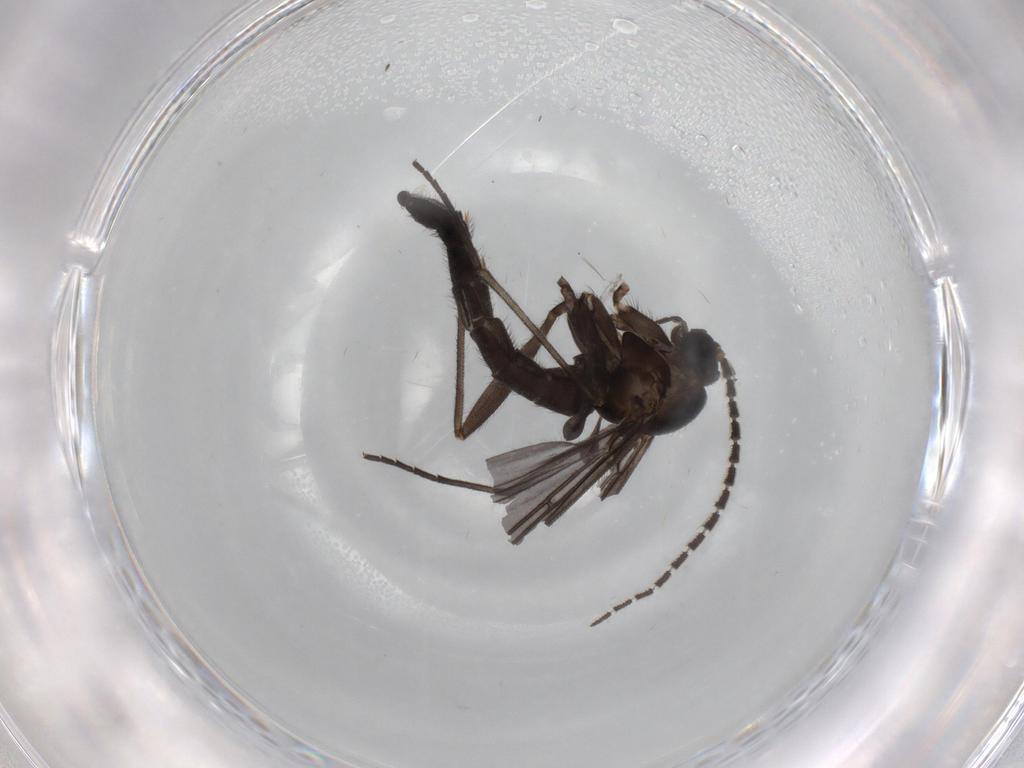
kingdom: Animalia
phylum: Arthropoda
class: Insecta
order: Diptera
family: Sciaridae
